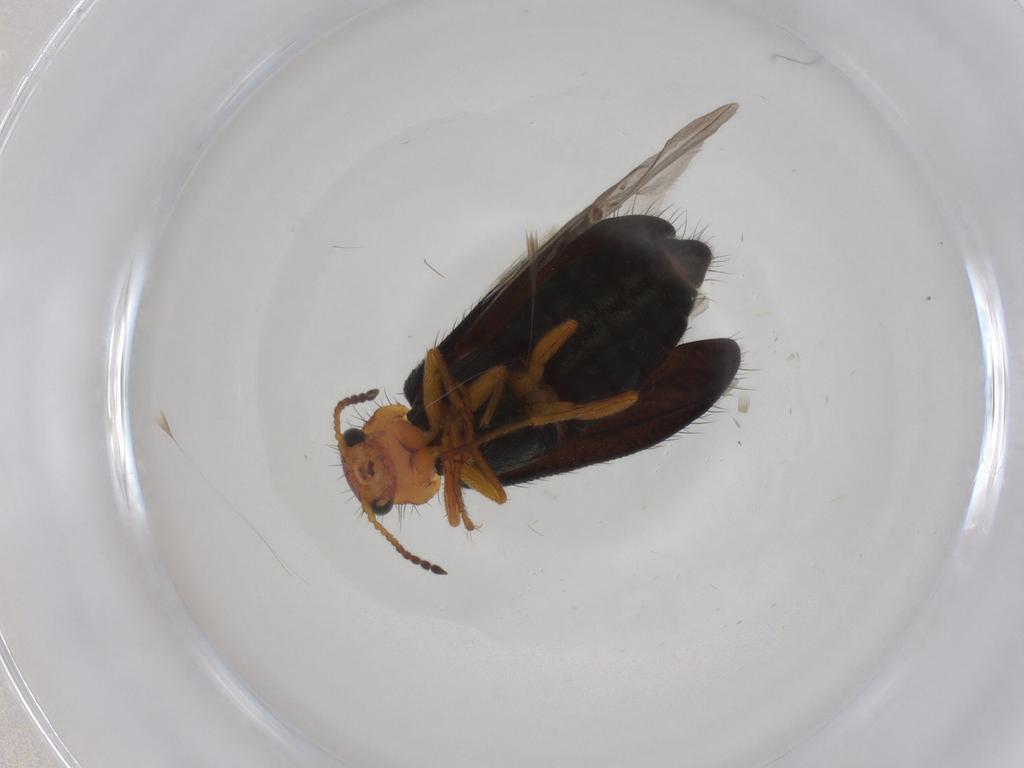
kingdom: Animalia
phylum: Arthropoda
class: Insecta
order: Coleoptera
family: Melyridae
